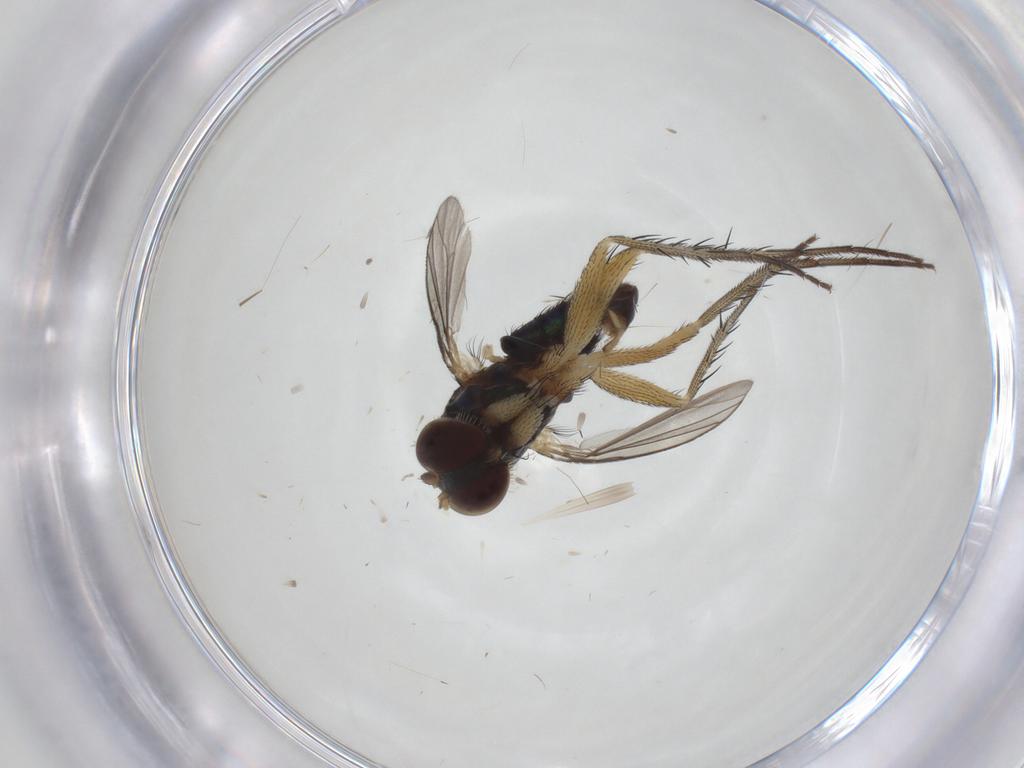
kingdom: Animalia
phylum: Arthropoda
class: Insecta
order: Diptera
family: Dolichopodidae
